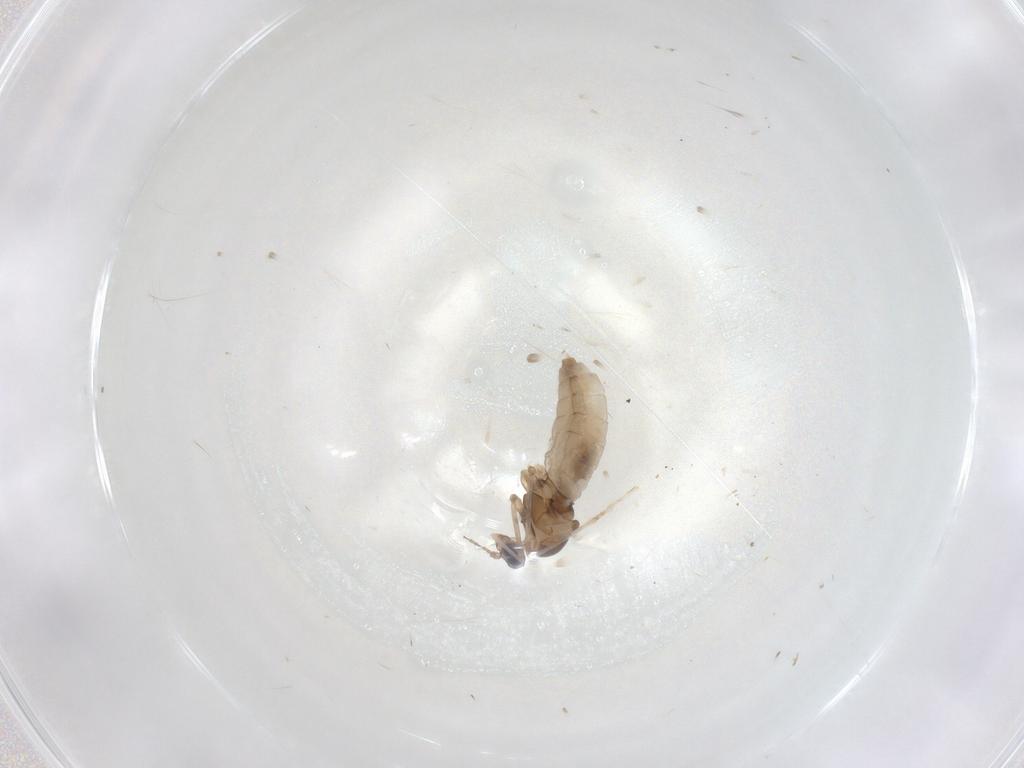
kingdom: Animalia
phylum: Arthropoda
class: Insecta
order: Diptera
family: Cecidomyiidae
